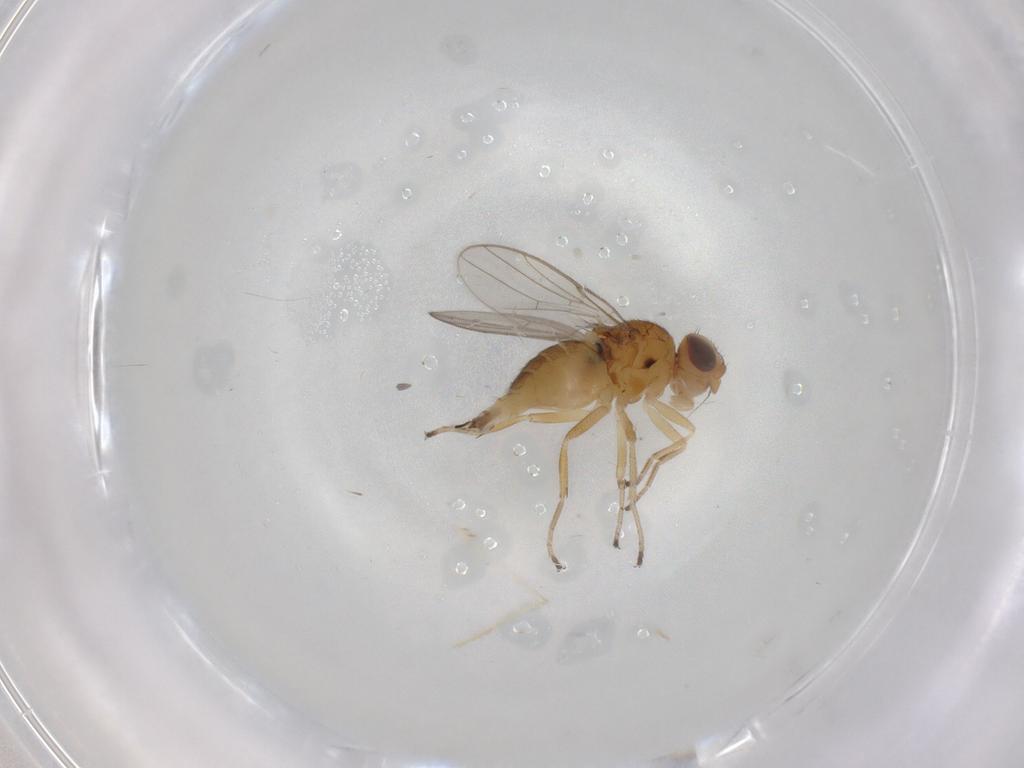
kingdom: Animalia
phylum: Arthropoda
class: Insecta
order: Diptera
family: Chloropidae
